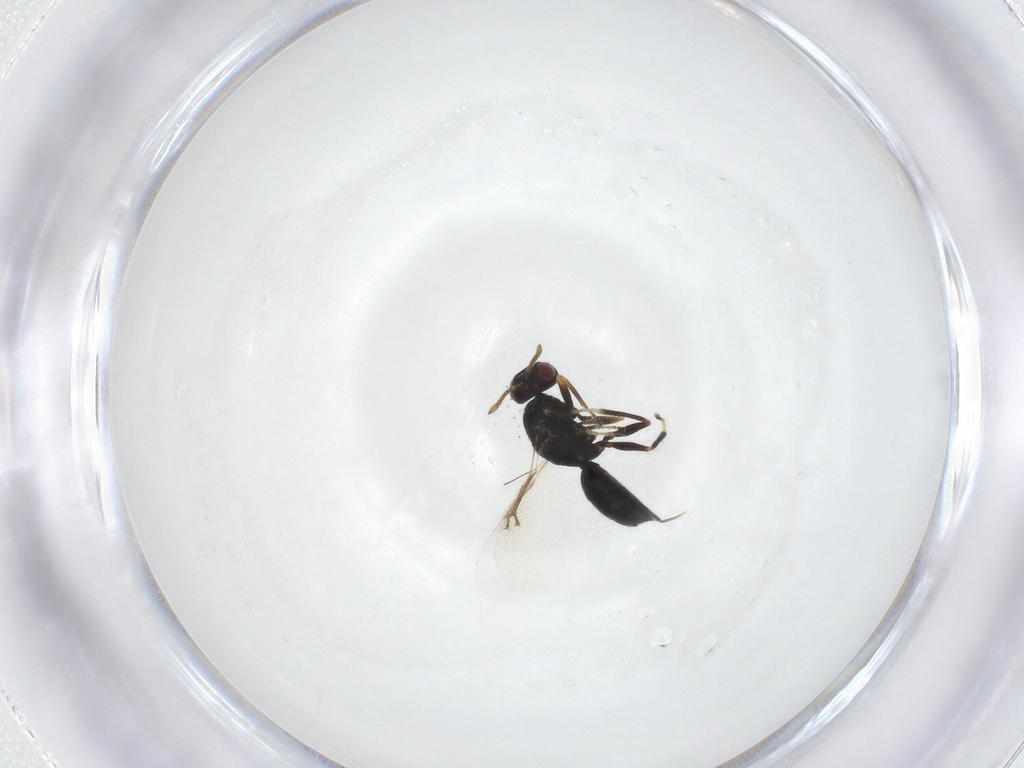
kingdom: Animalia
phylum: Arthropoda
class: Insecta
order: Hymenoptera
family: Eulophidae
